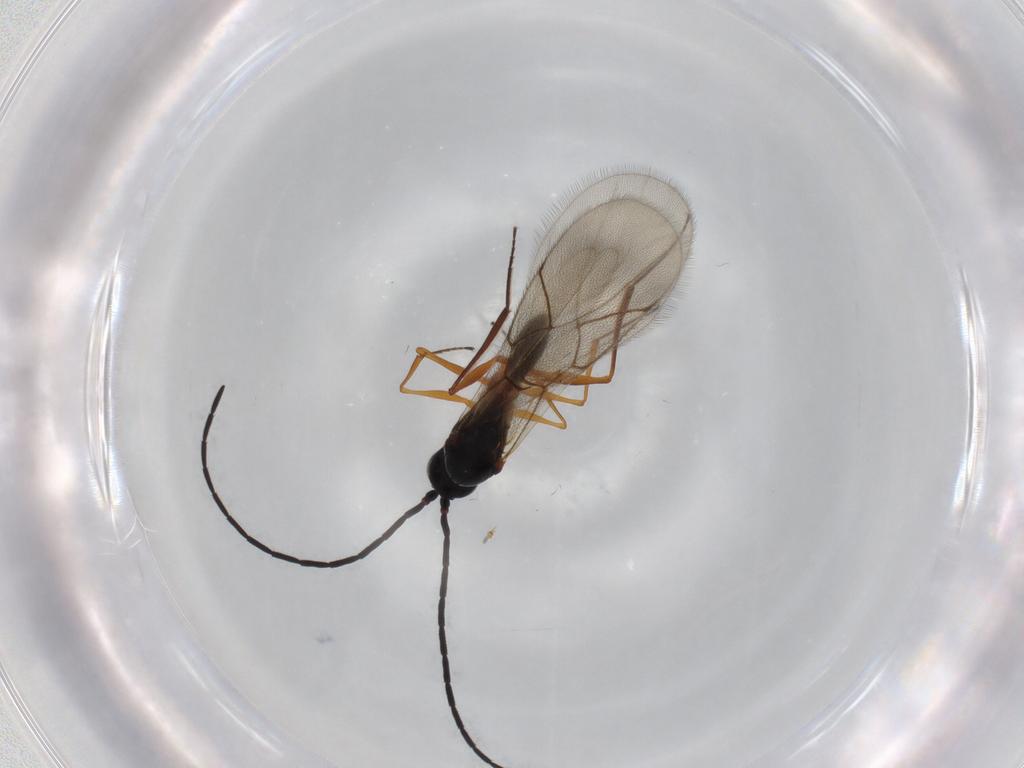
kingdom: Animalia
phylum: Arthropoda
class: Insecta
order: Hymenoptera
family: Figitidae
